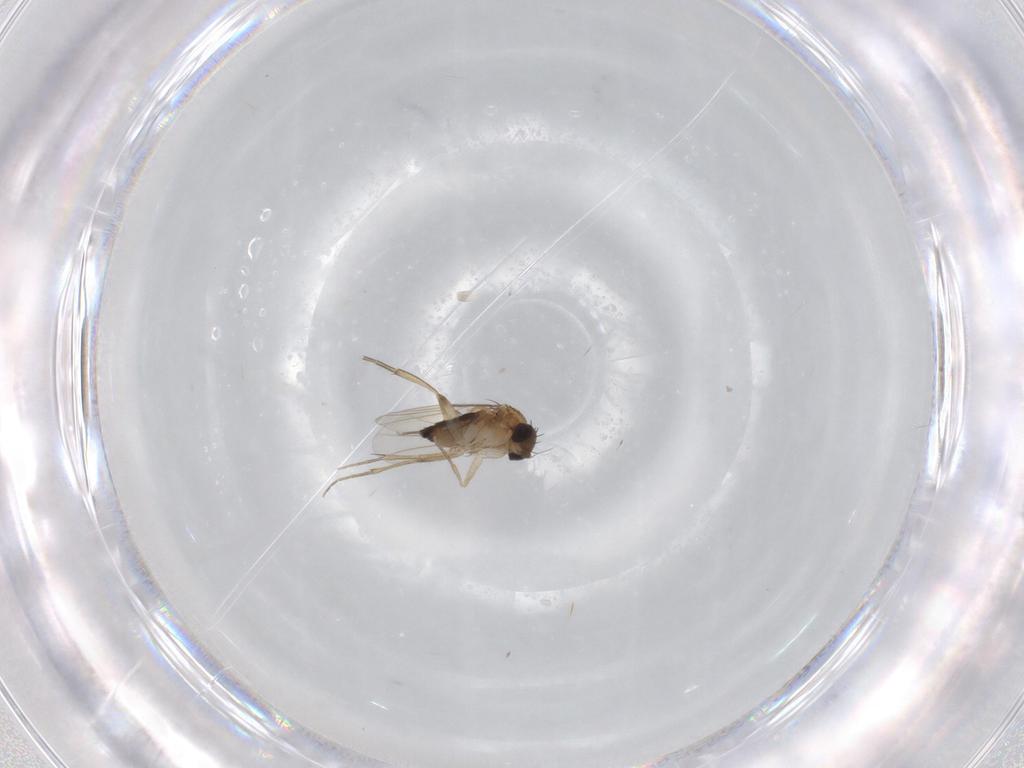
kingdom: Animalia
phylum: Arthropoda
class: Insecta
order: Diptera
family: Phoridae
